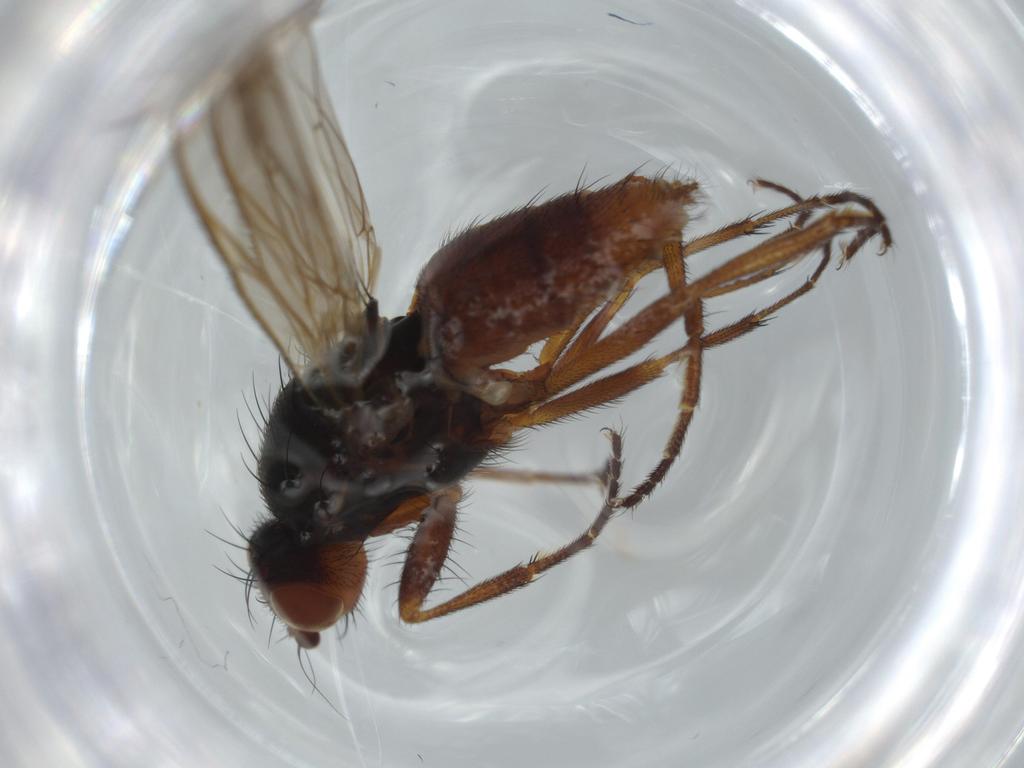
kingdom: Animalia
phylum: Arthropoda
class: Insecta
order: Diptera
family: Heleomyzidae
